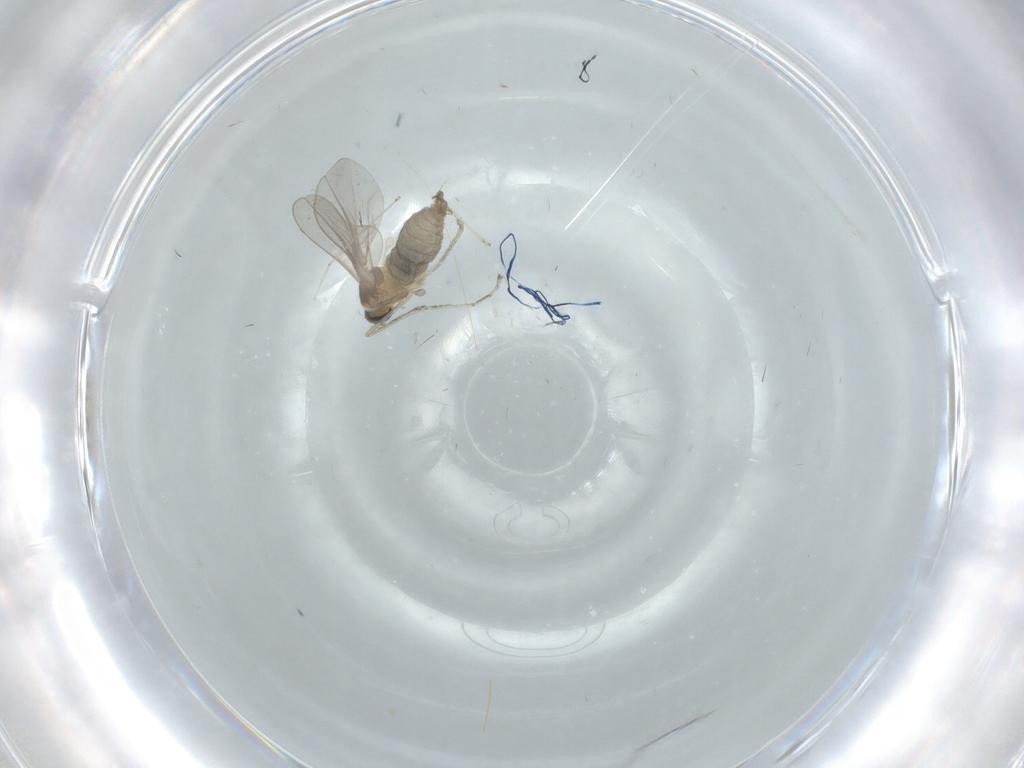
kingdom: Animalia
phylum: Arthropoda
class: Insecta
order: Diptera
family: Cecidomyiidae
